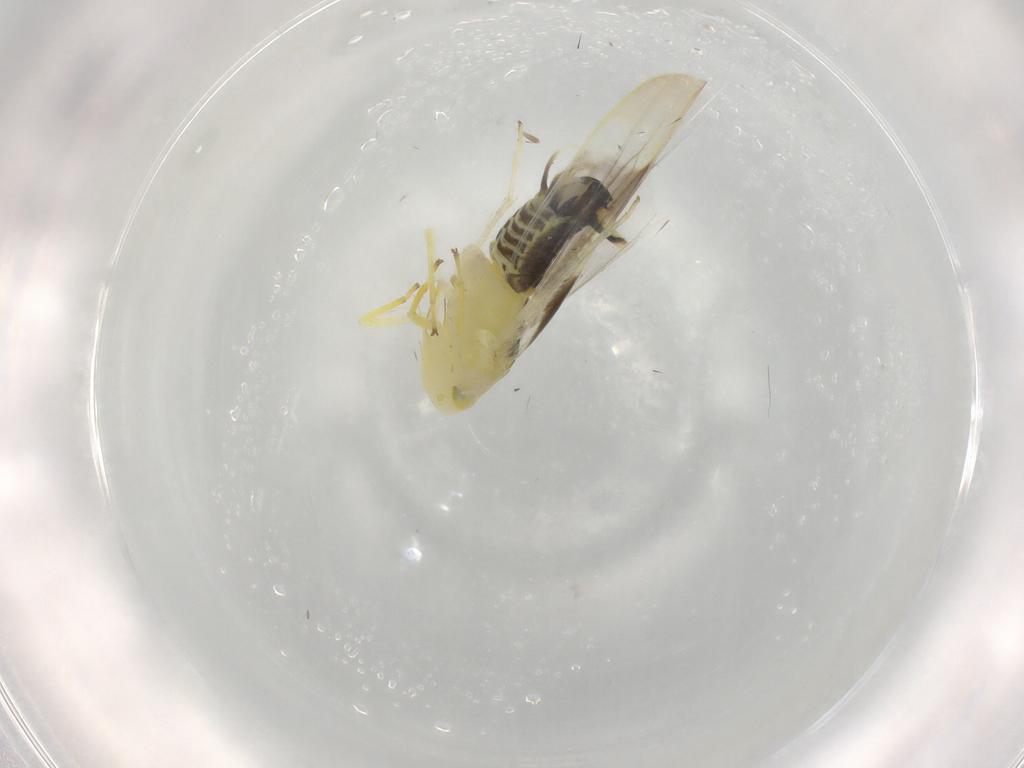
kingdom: Animalia
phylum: Arthropoda
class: Insecta
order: Hemiptera
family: Cicadellidae
